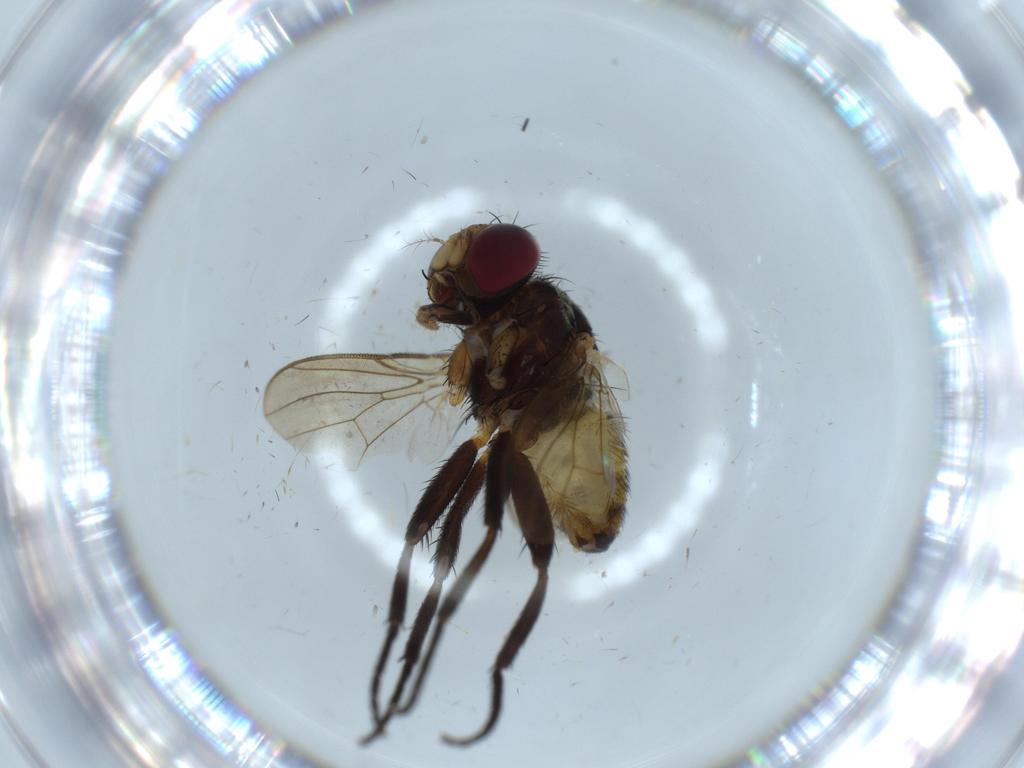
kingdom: Animalia
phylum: Arthropoda
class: Insecta
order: Diptera
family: Anthomyiidae
